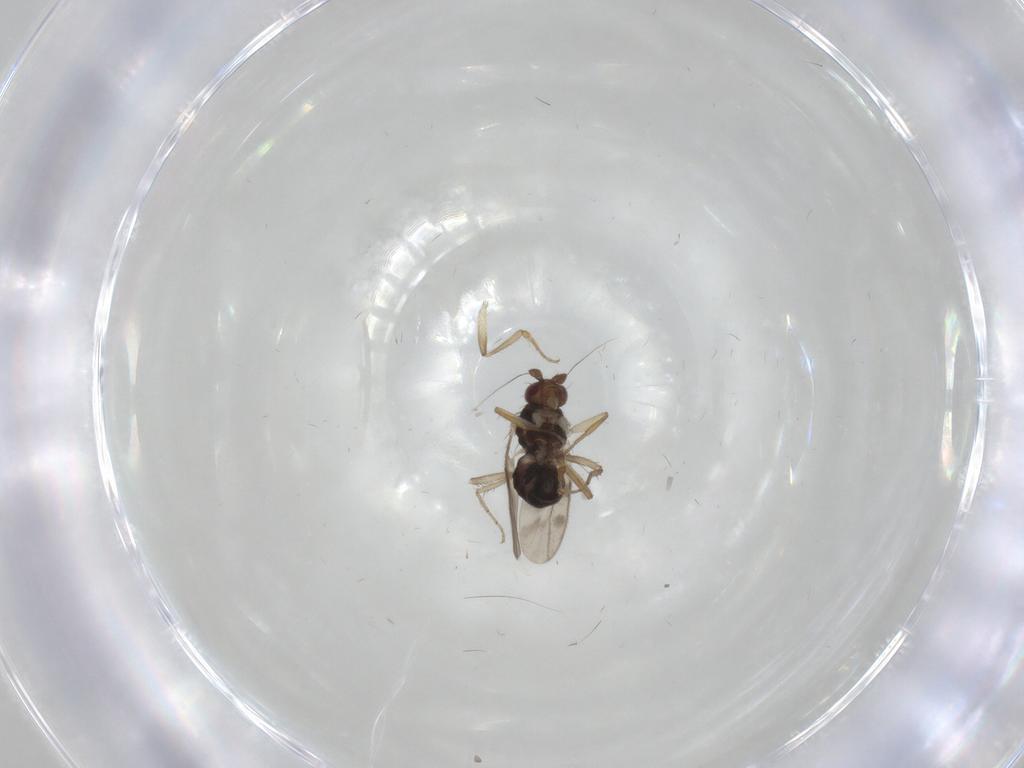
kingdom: Animalia
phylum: Arthropoda
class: Insecta
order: Diptera
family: Sphaeroceridae
